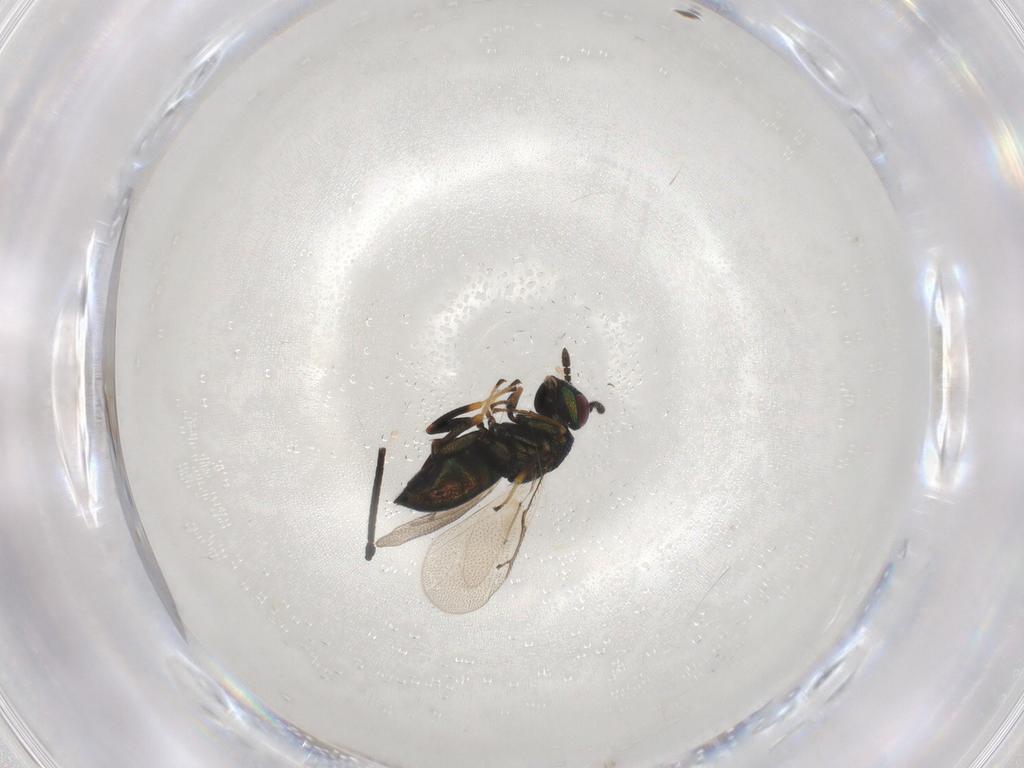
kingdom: Animalia
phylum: Arthropoda
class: Insecta
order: Hymenoptera
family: Braconidae
